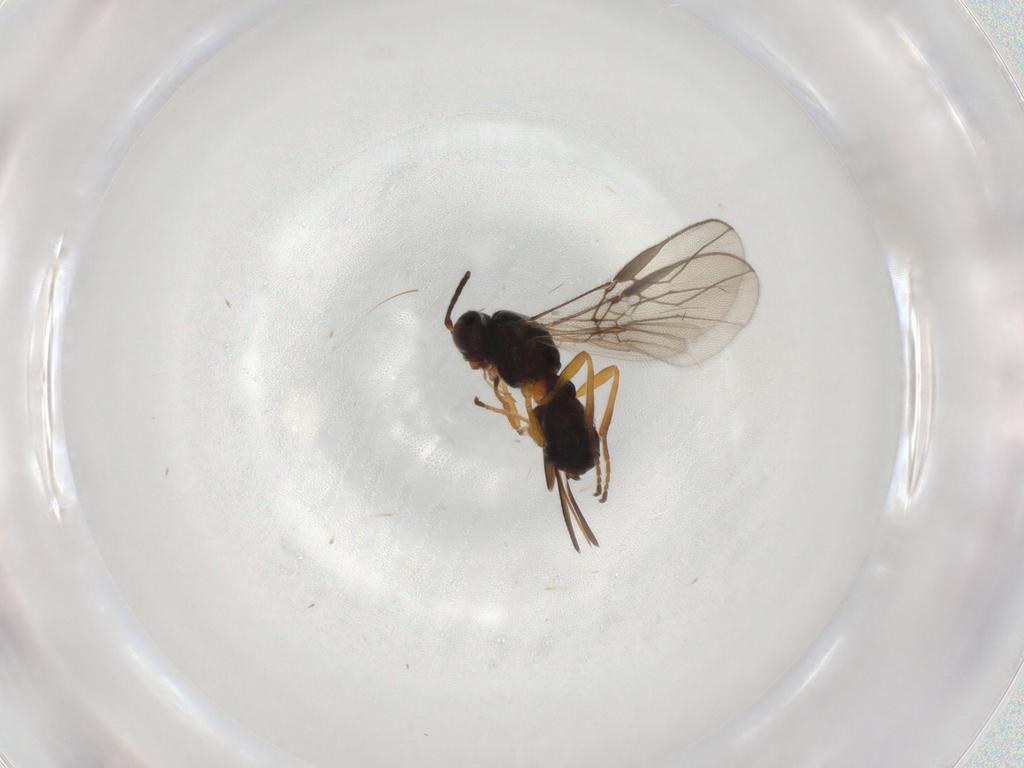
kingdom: Animalia
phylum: Arthropoda
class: Insecta
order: Hymenoptera
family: Braconidae
